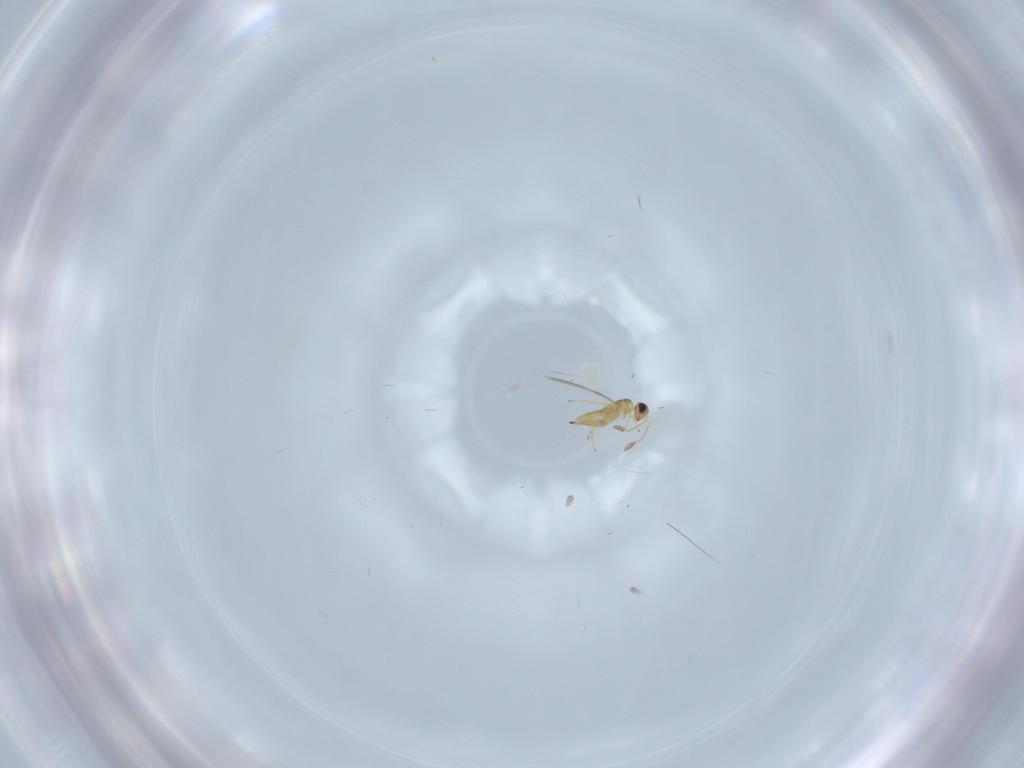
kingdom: Animalia
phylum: Arthropoda
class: Insecta
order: Hymenoptera
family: Mymaridae
